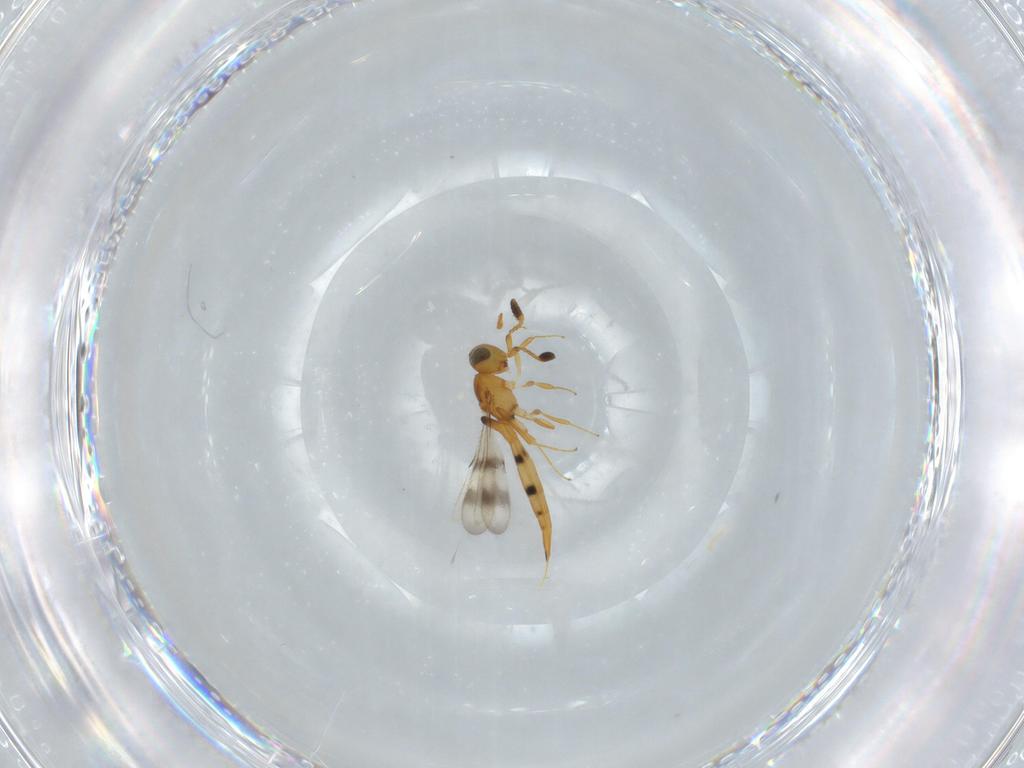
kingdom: Animalia
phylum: Arthropoda
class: Insecta
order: Hymenoptera
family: Scelionidae
